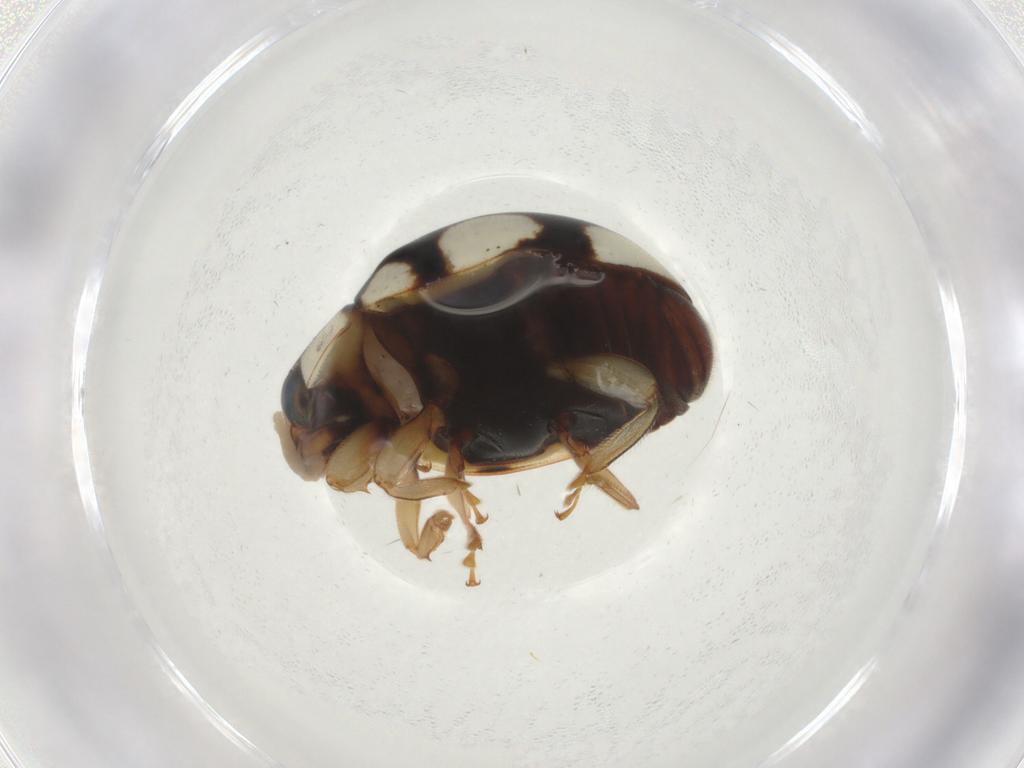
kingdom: Animalia
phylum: Arthropoda
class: Insecta
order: Coleoptera
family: Coccinellidae
